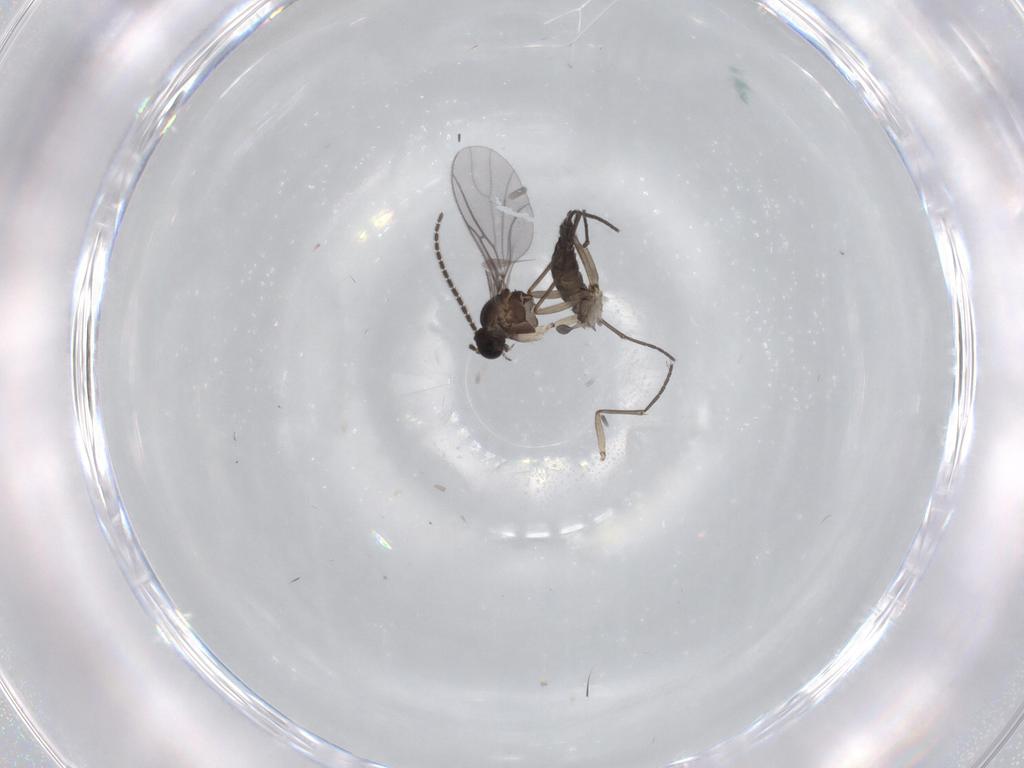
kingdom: Animalia
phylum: Arthropoda
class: Insecta
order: Diptera
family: Sciaridae
